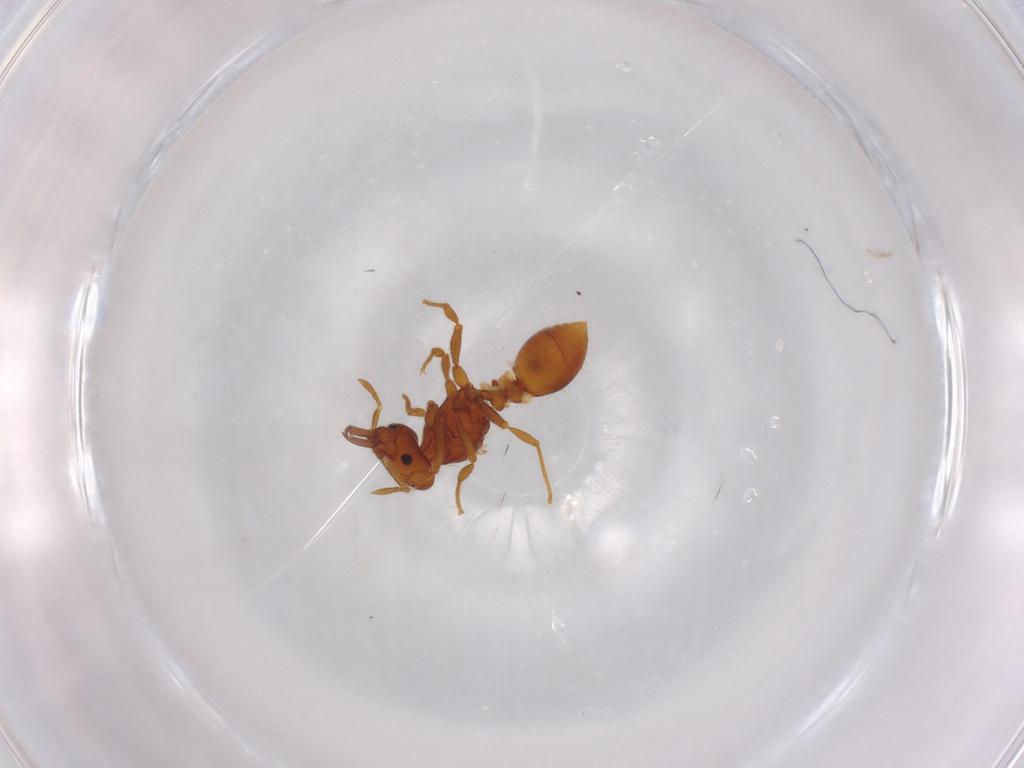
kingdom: Animalia
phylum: Arthropoda
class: Insecta
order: Hymenoptera
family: Formicidae
